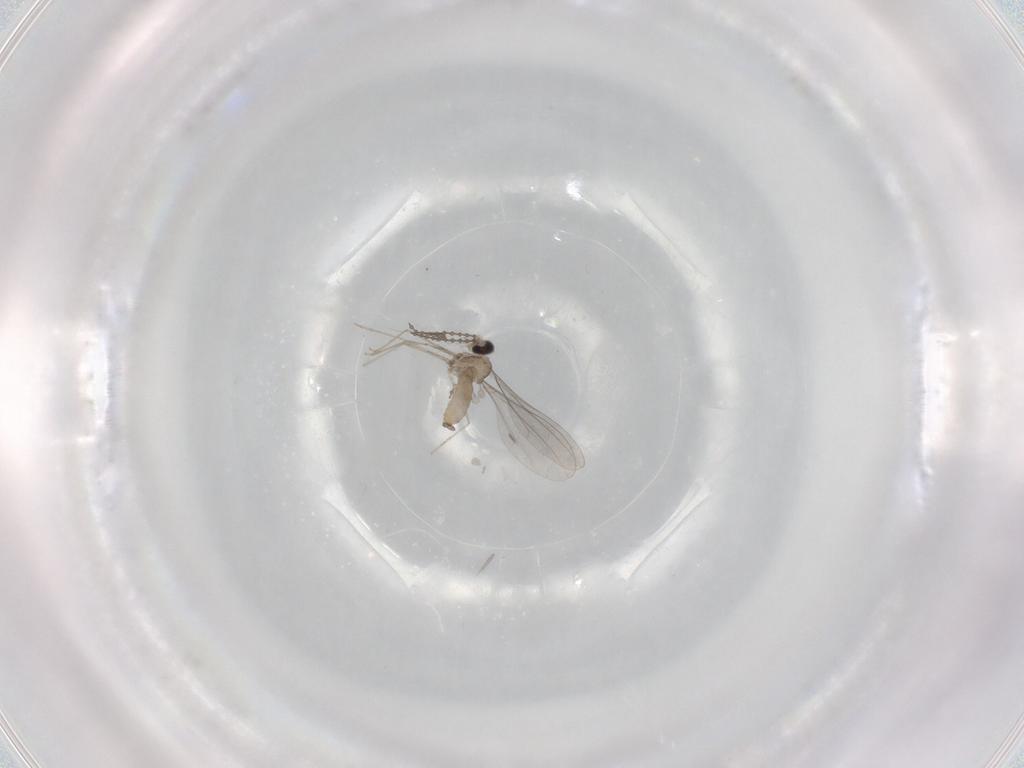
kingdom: Animalia
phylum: Arthropoda
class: Insecta
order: Diptera
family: Cecidomyiidae
